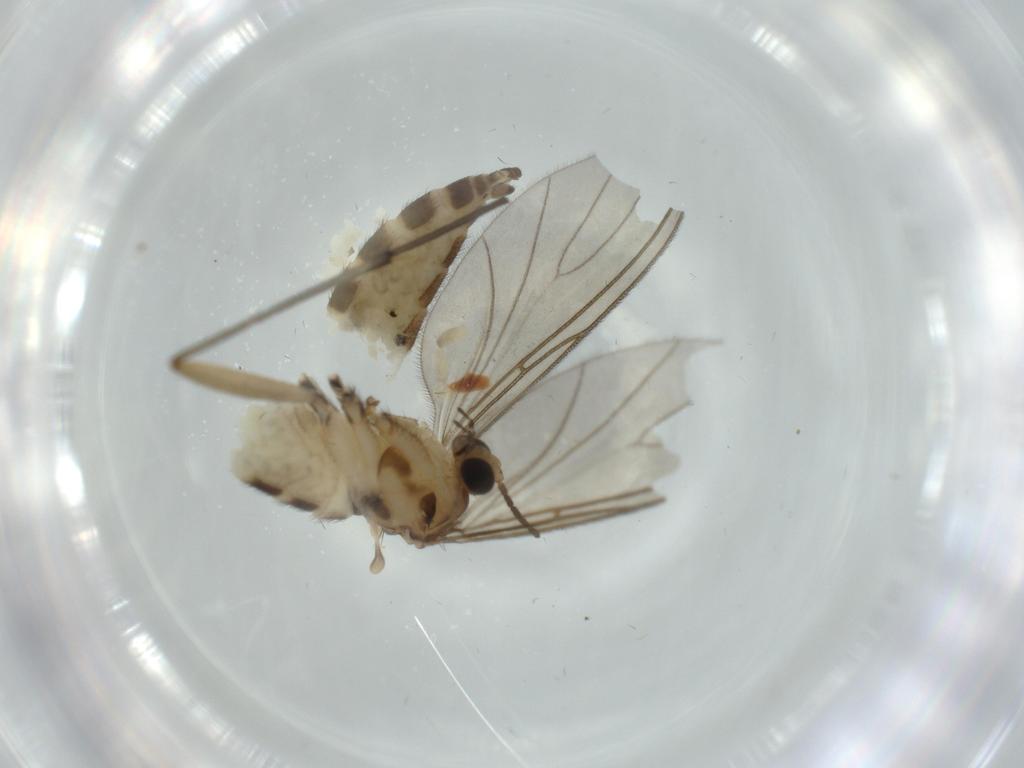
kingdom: Animalia
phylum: Arthropoda
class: Insecta
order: Diptera
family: Sciaridae
